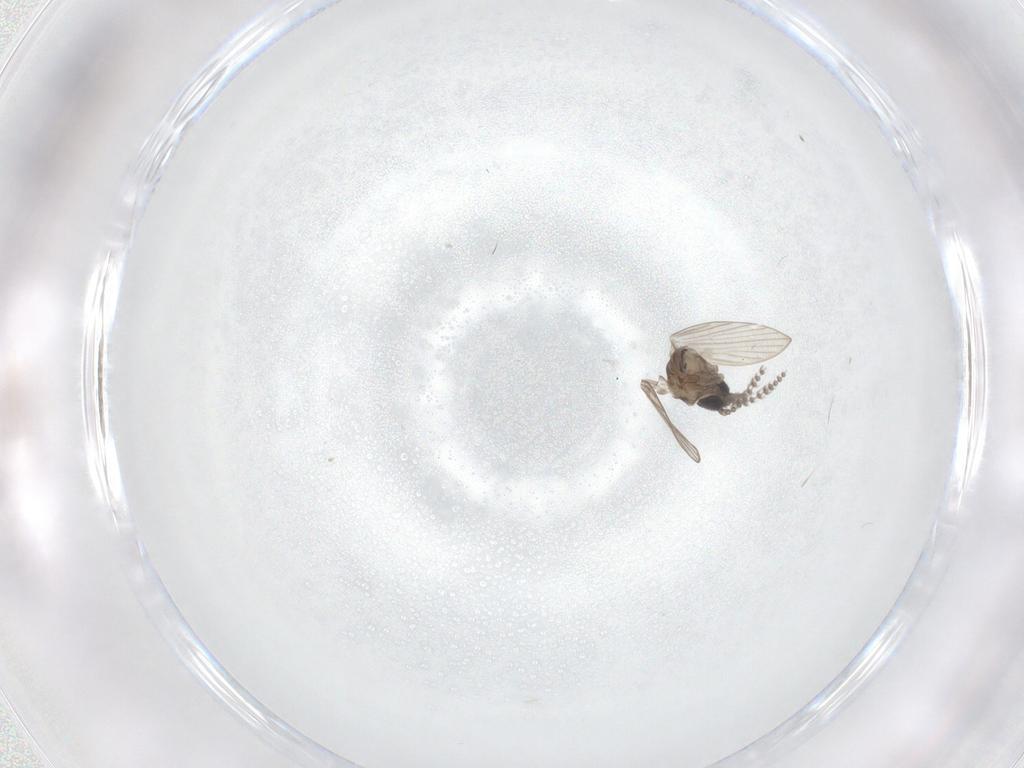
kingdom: Animalia
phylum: Arthropoda
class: Insecta
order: Diptera
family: Psychodidae
